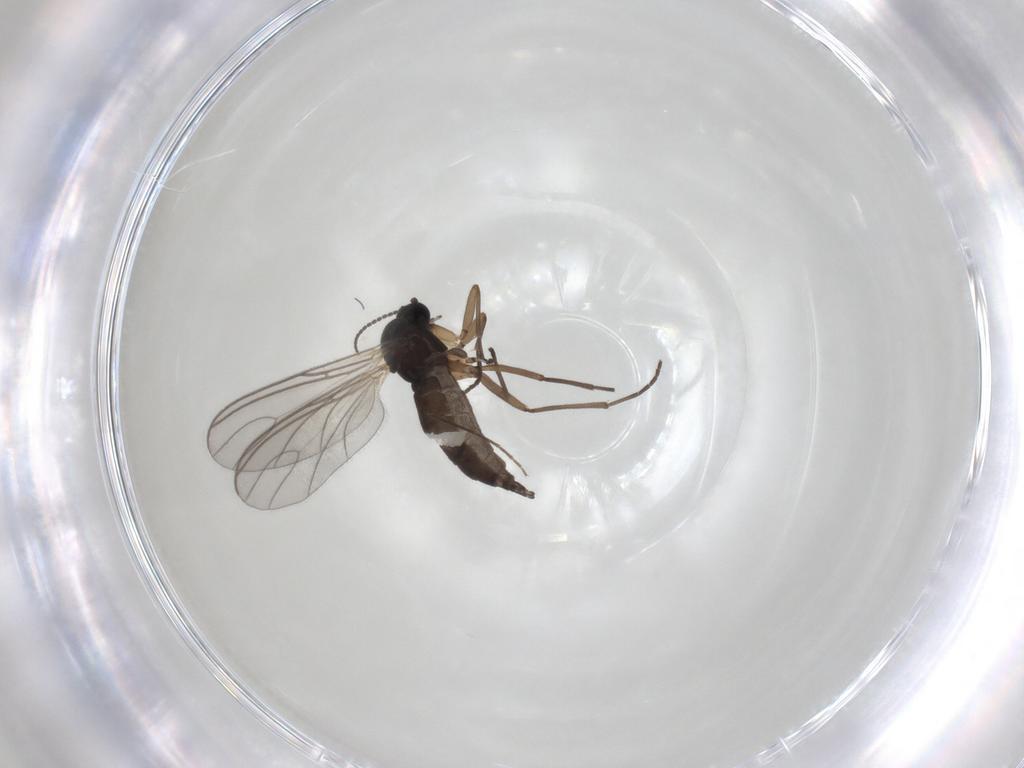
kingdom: Animalia
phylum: Arthropoda
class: Insecta
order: Diptera
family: Sciaridae
